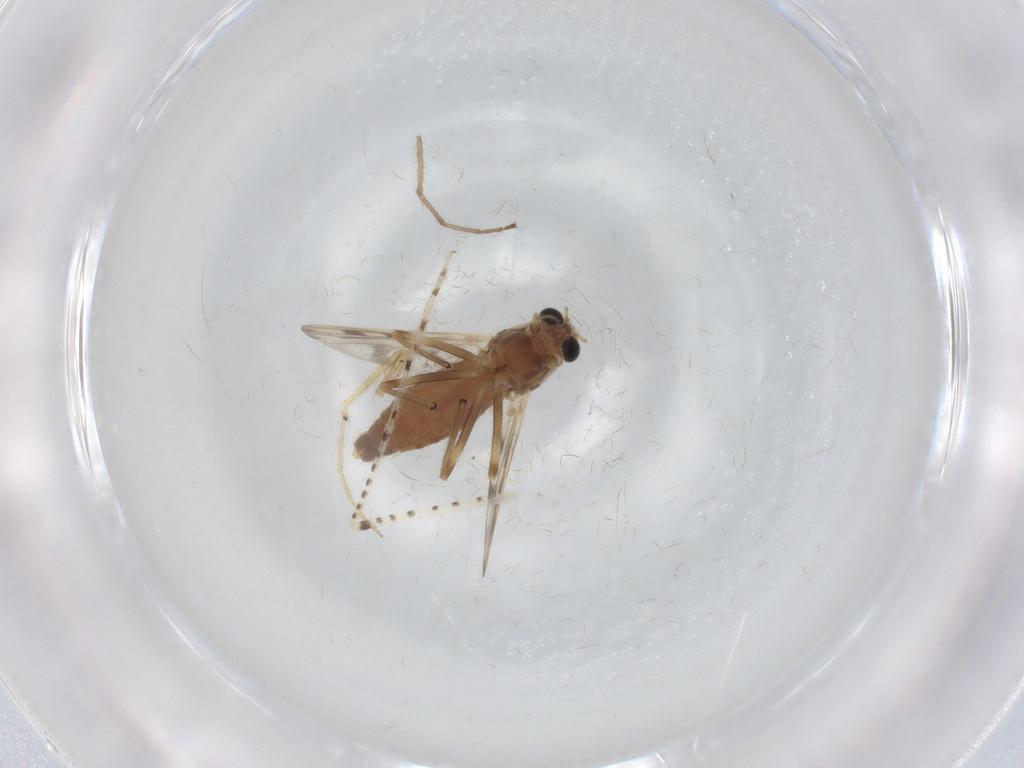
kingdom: Animalia
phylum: Arthropoda
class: Insecta
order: Diptera
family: Chironomidae
